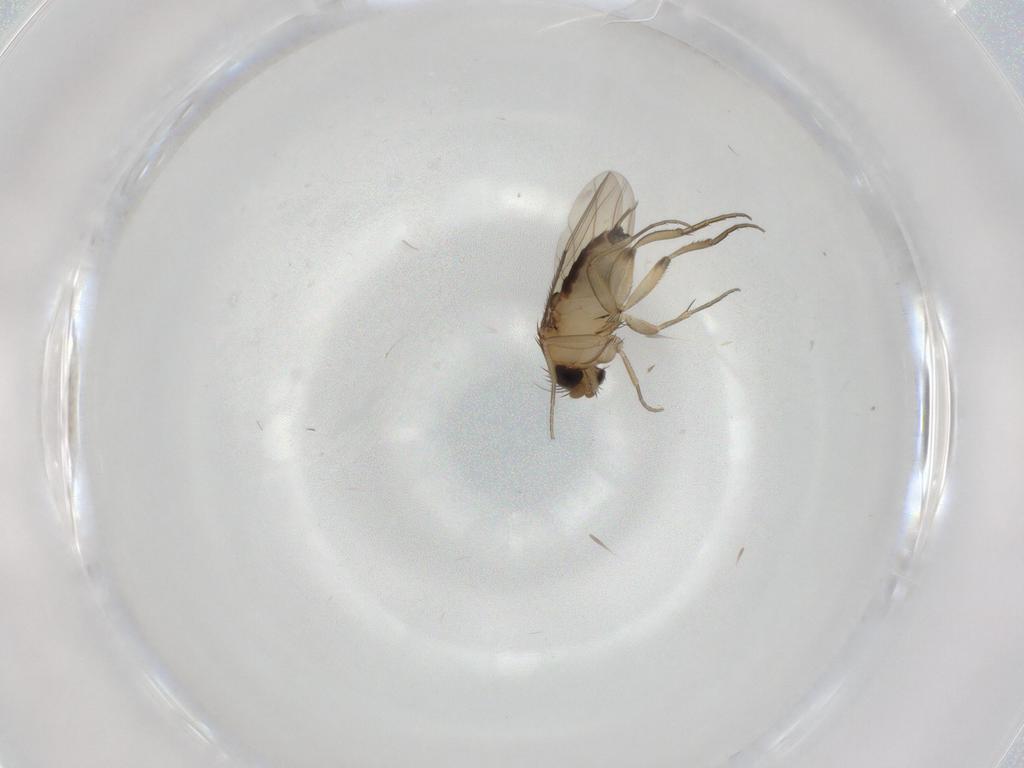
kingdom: Animalia
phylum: Arthropoda
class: Insecta
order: Diptera
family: Phoridae
